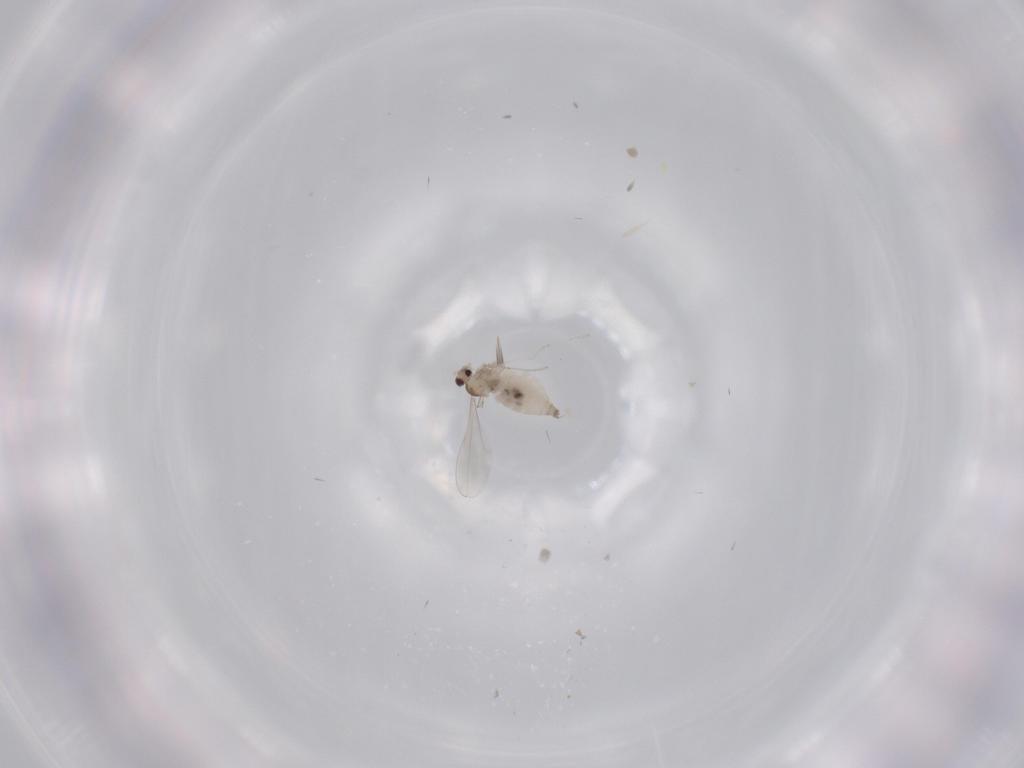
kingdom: Animalia
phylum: Arthropoda
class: Insecta
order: Diptera
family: Cecidomyiidae
